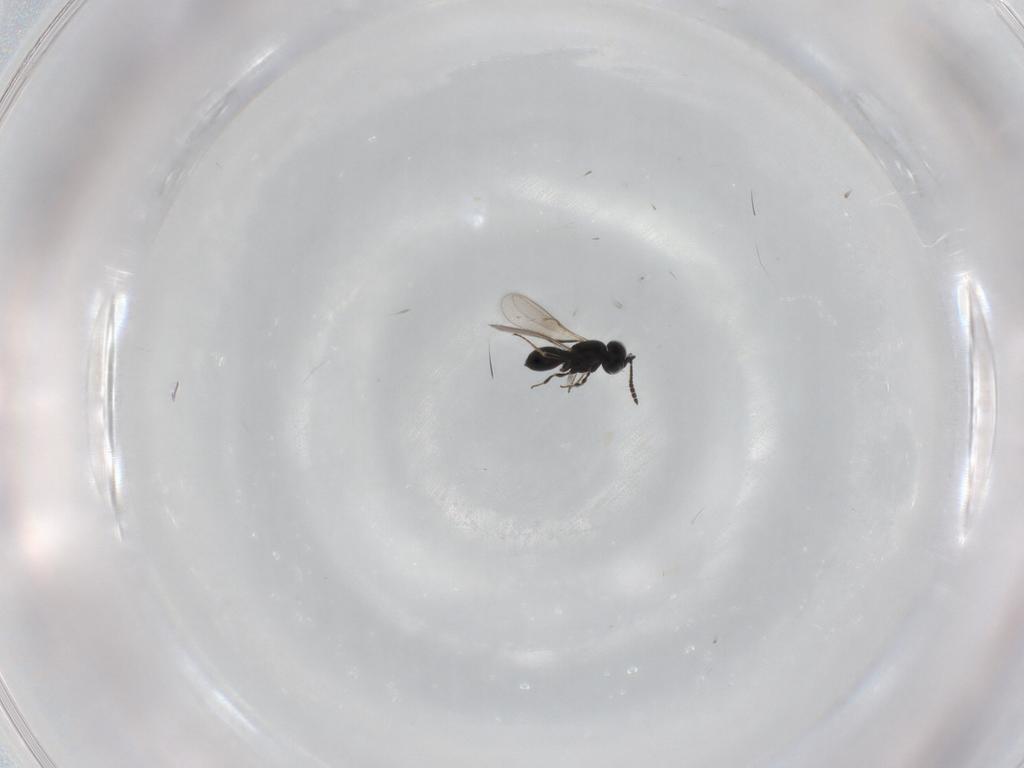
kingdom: Animalia
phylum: Arthropoda
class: Insecta
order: Hymenoptera
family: Scelionidae
